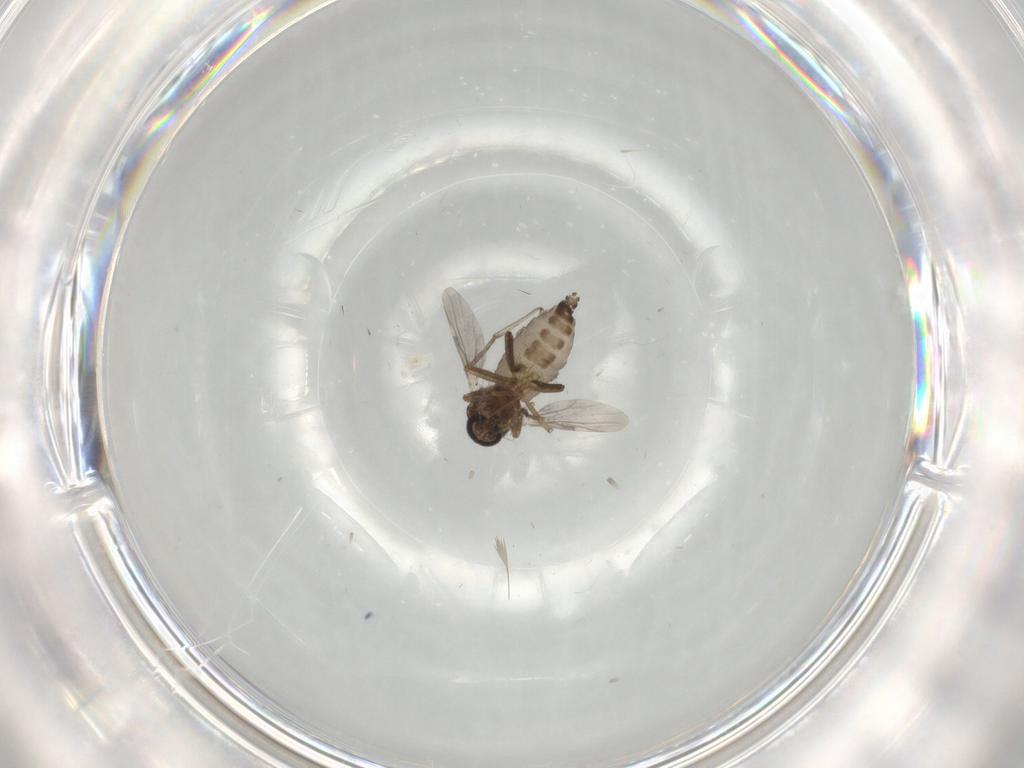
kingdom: Animalia
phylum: Arthropoda
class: Insecta
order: Diptera
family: Ceratopogonidae
